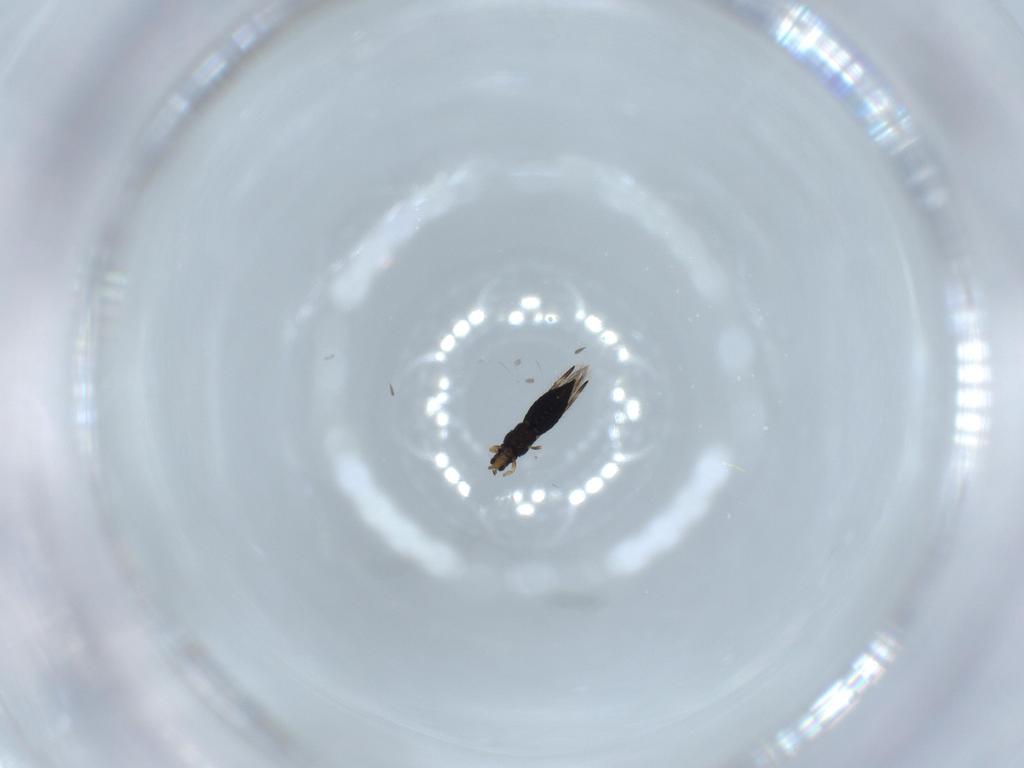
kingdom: Animalia
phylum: Arthropoda
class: Insecta
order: Thysanoptera
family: Thripidae
